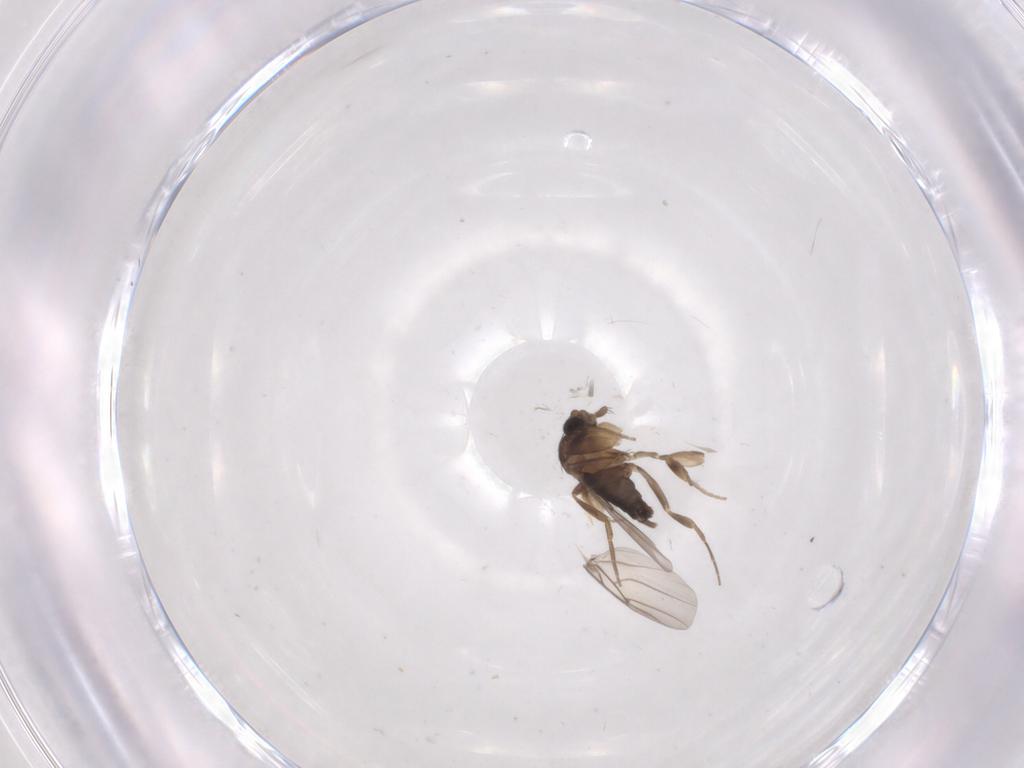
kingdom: Animalia
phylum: Arthropoda
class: Insecta
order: Diptera
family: Phoridae
